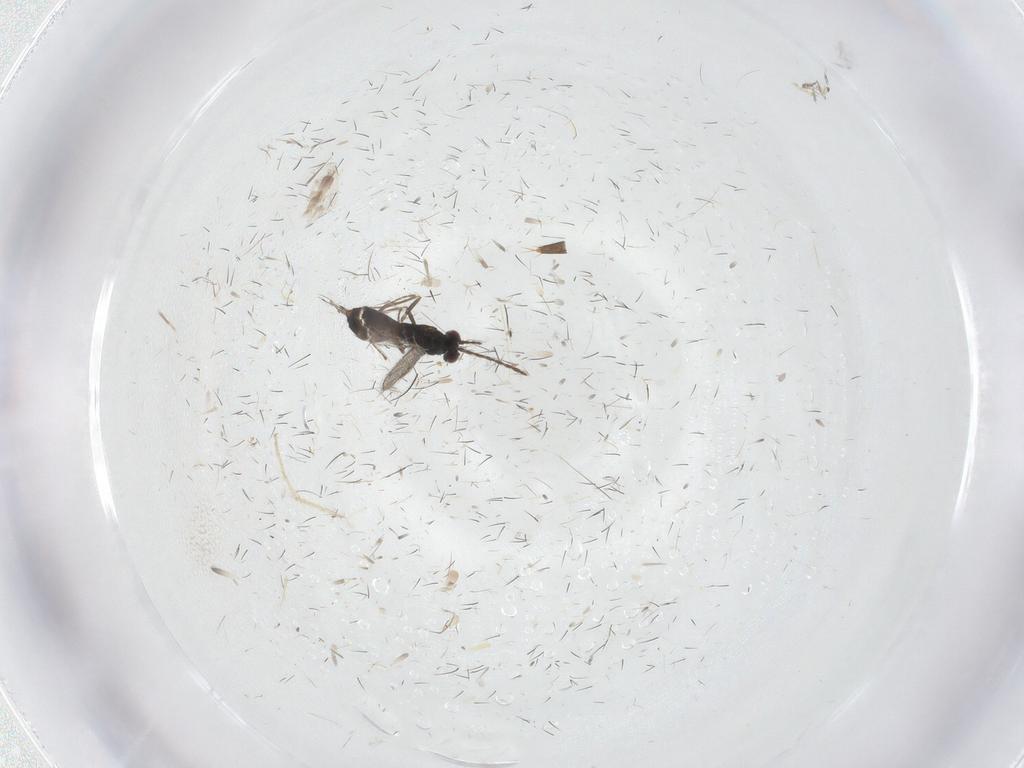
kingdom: Animalia
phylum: Arthropoda
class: Insecta
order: Hymenoptera
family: Eulophidae
